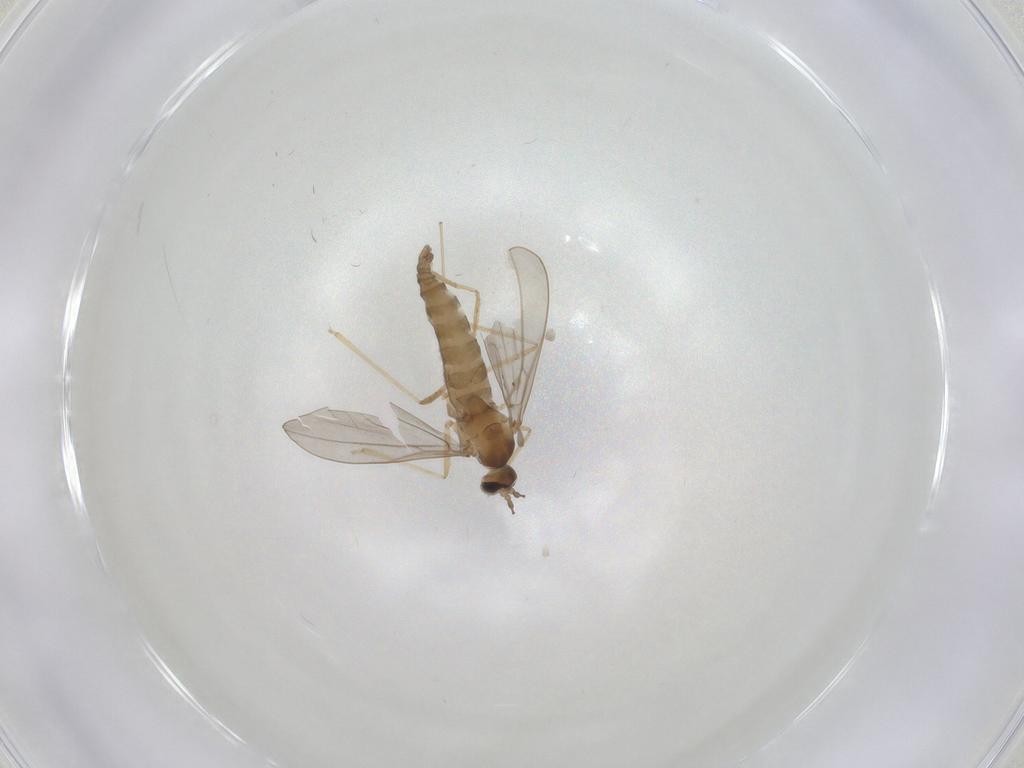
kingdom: Animalia
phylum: Arthropoda
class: Insecta
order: Diptera
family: Cecidomyiidae
